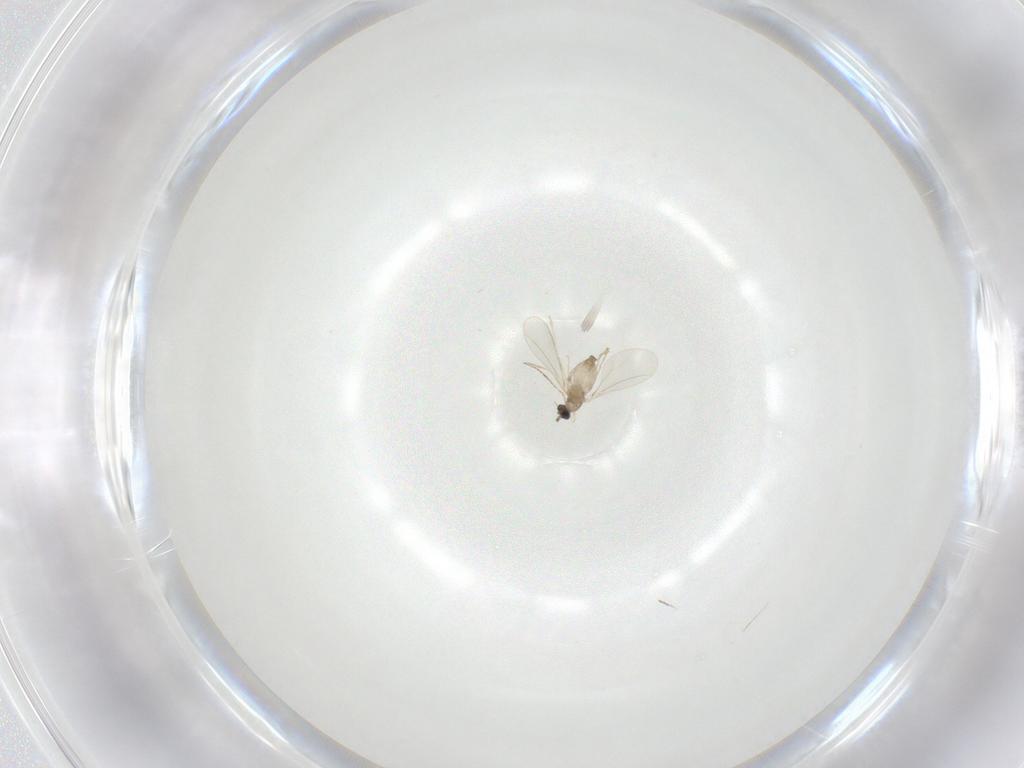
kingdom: Animalia
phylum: Arthropoda
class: Insecta
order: Diptera
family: Cecidomyiidae
